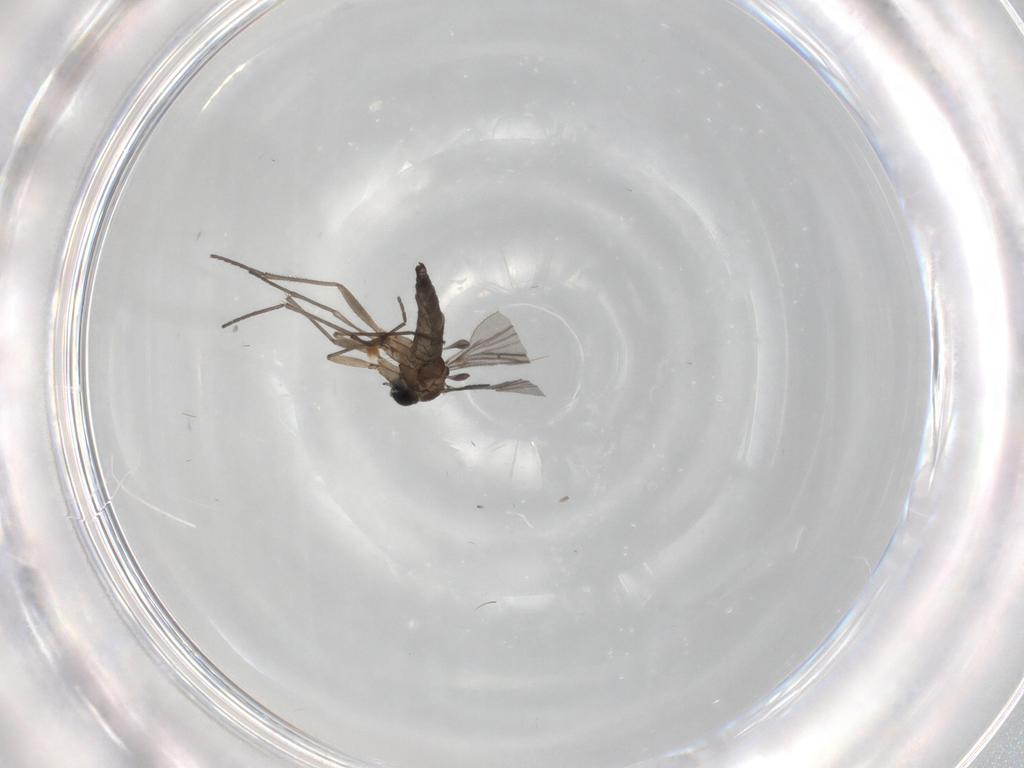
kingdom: Animalia
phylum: Arthropoda
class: Insecta
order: Diptera
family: Sciaridae
